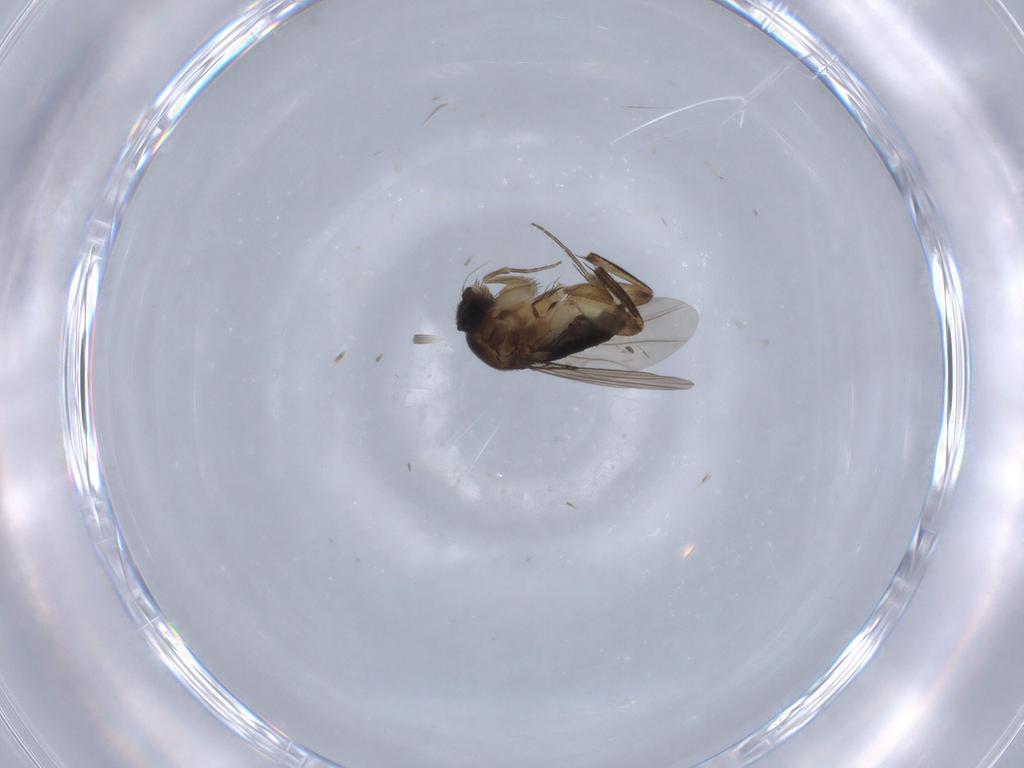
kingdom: Animalia
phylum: Arthropoda
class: Insecta
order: Diptera
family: Phoridae
